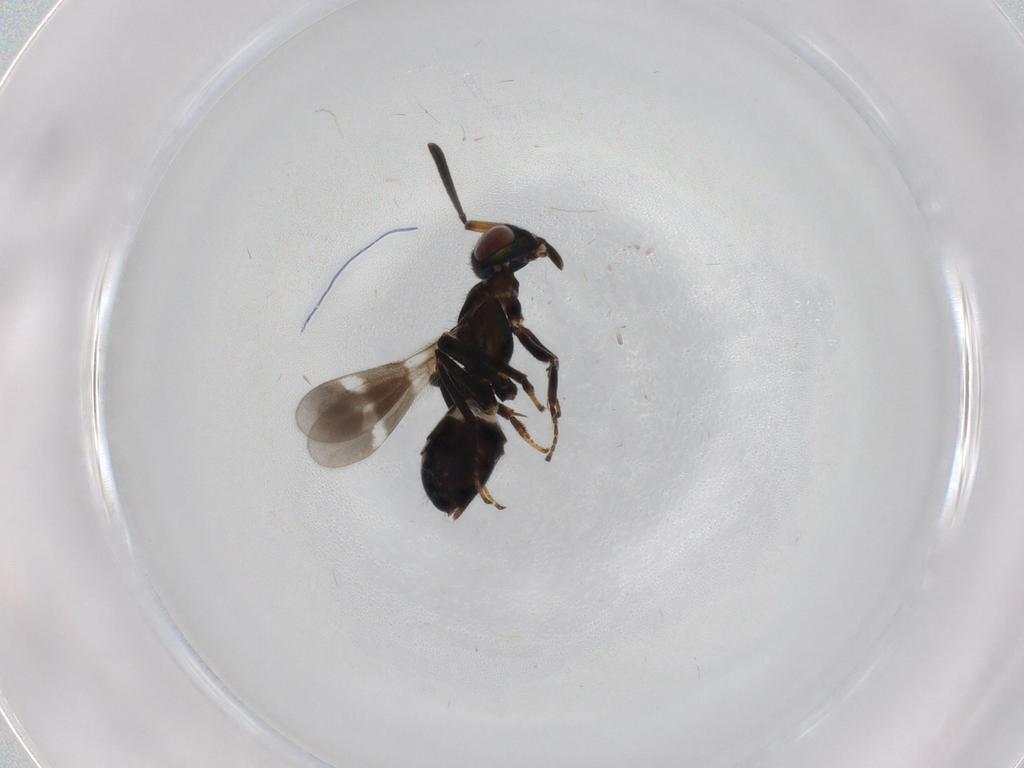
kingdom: Animalia
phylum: Arthropoda
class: Insecta
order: Hymenoptera
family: Eupelmidae
